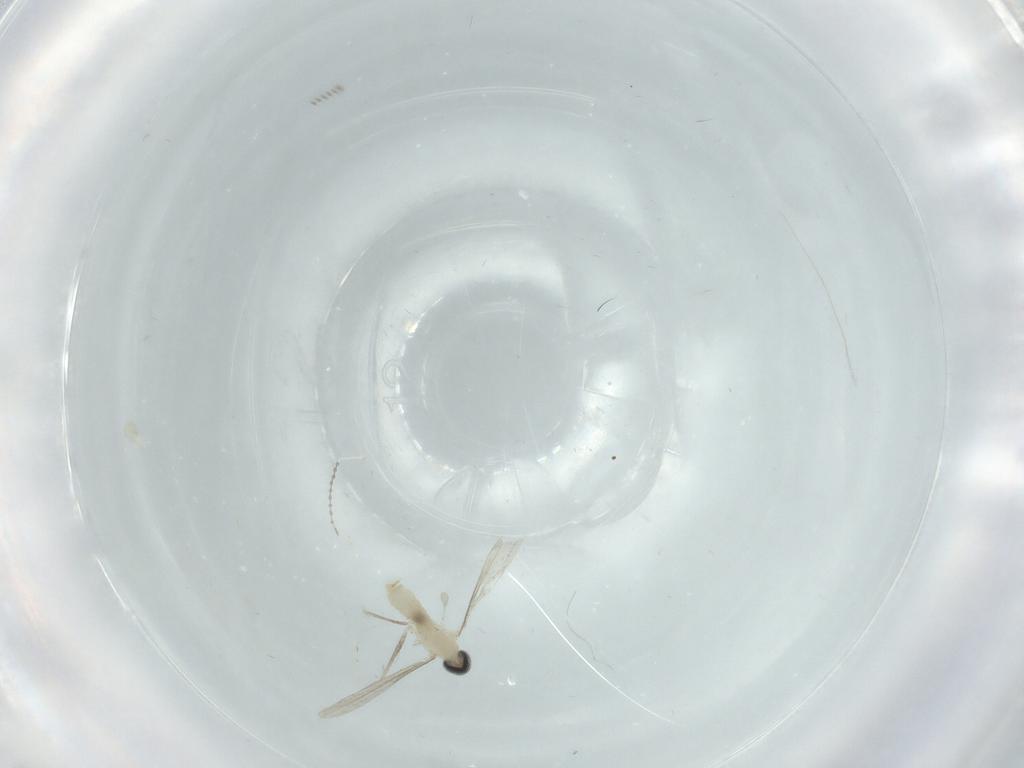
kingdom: Animalia
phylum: Arthropoda
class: Insecta
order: Diptera
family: Cecidomyiidae
